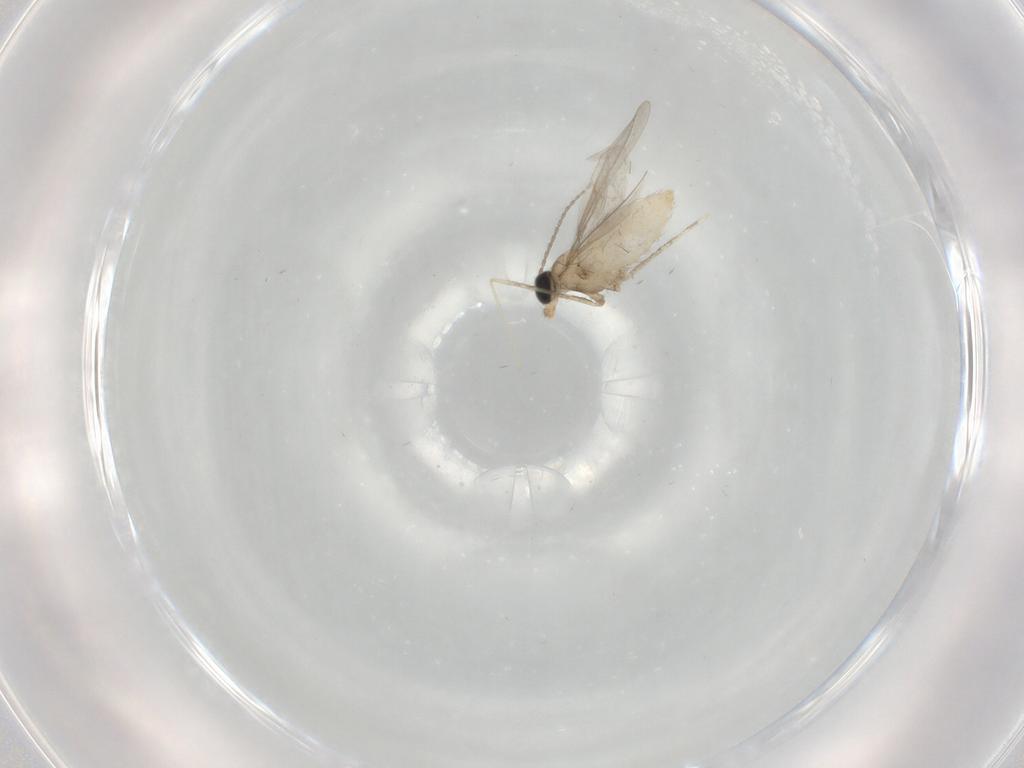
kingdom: Animalia
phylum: Arthropoda
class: Insecta
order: Diptera
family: Cecidomyiidae
